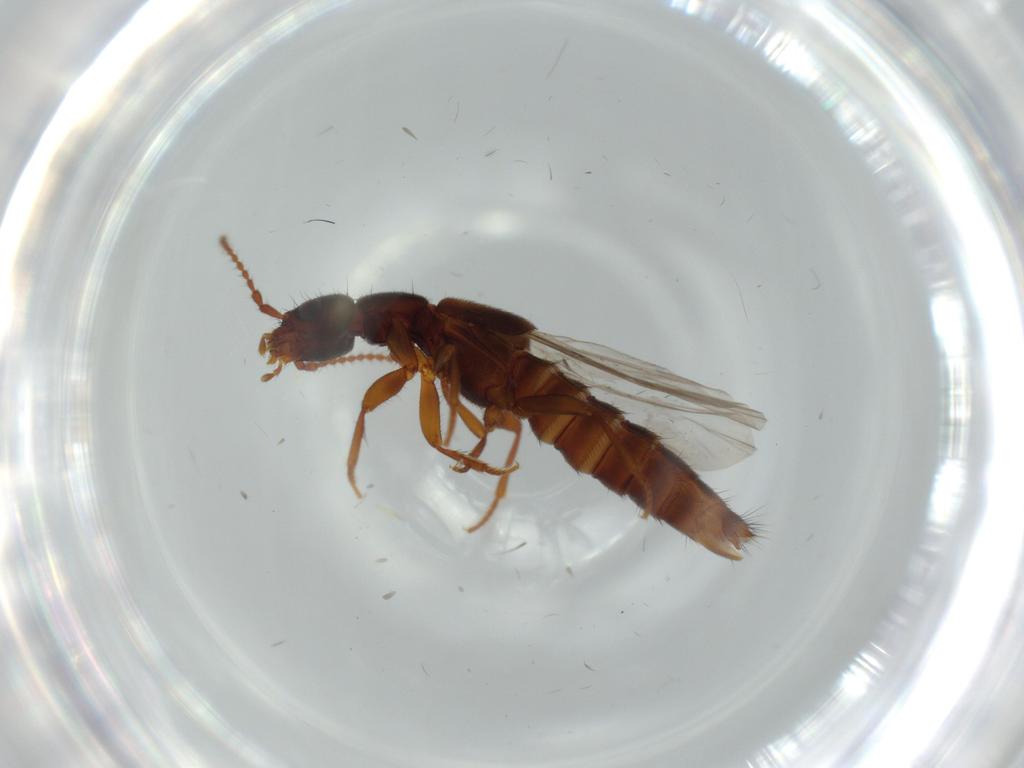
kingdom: Animalia
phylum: Arthropoda
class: Insecta
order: Coleoptera
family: Staphylinidae
